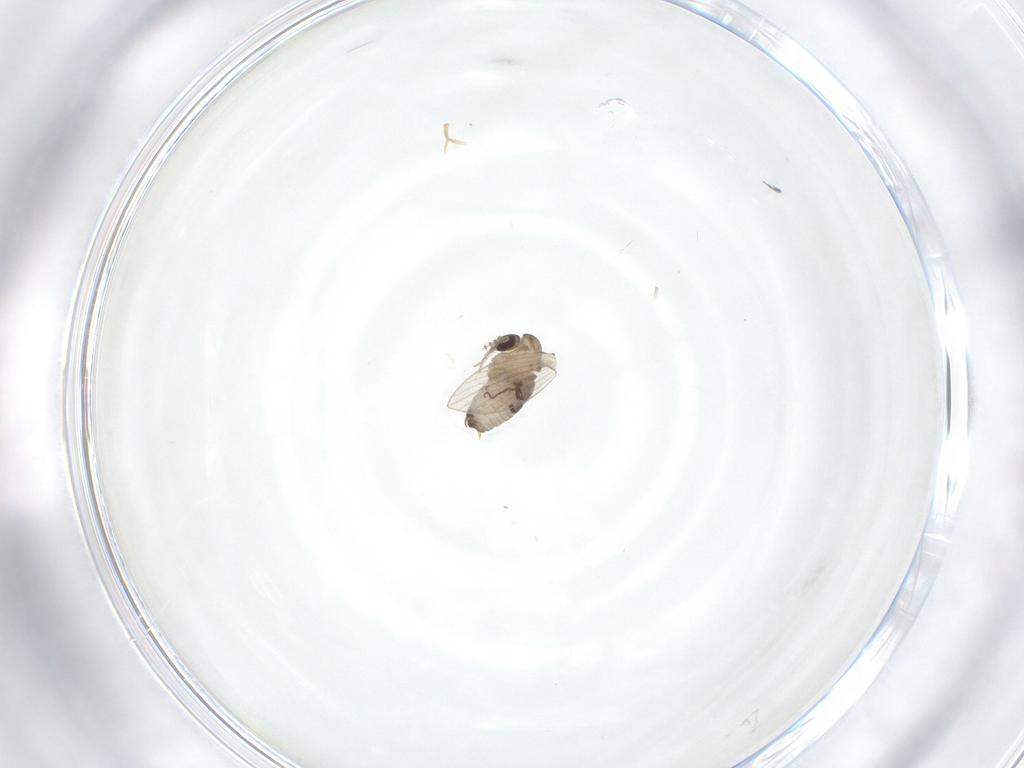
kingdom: Animalia
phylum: Arthropoda
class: Insecta
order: Diptera
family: Psychodidae
